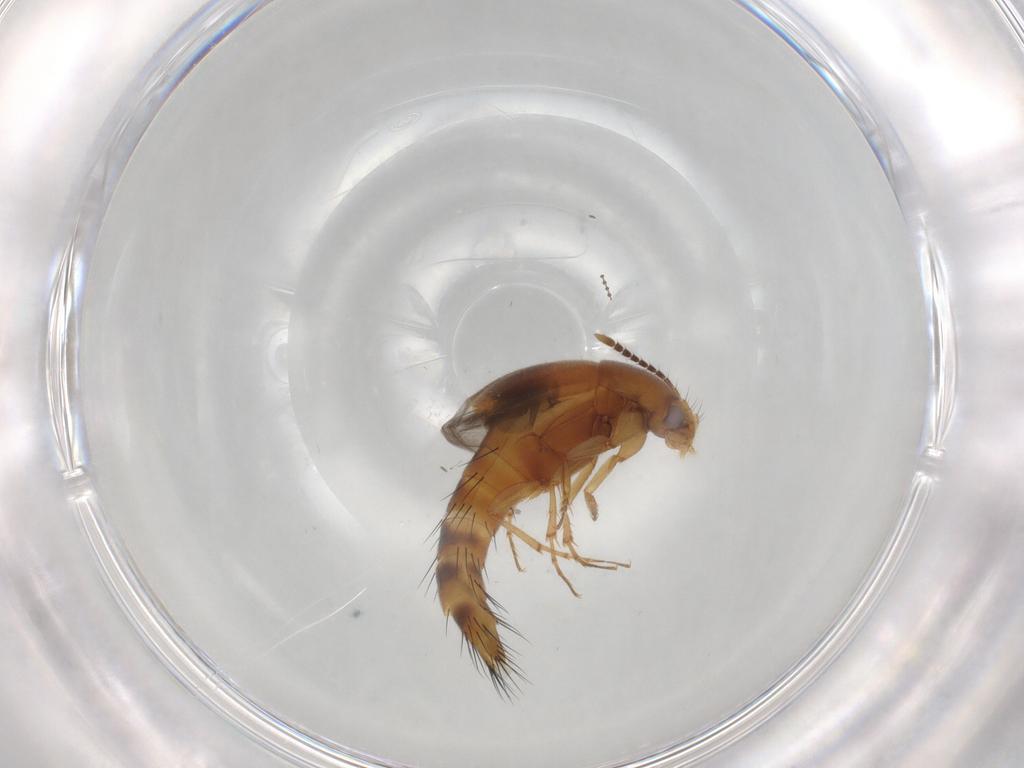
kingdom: Animalia
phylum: Arthropoda
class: Insecta
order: Coleoptera
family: Staphylinidae
